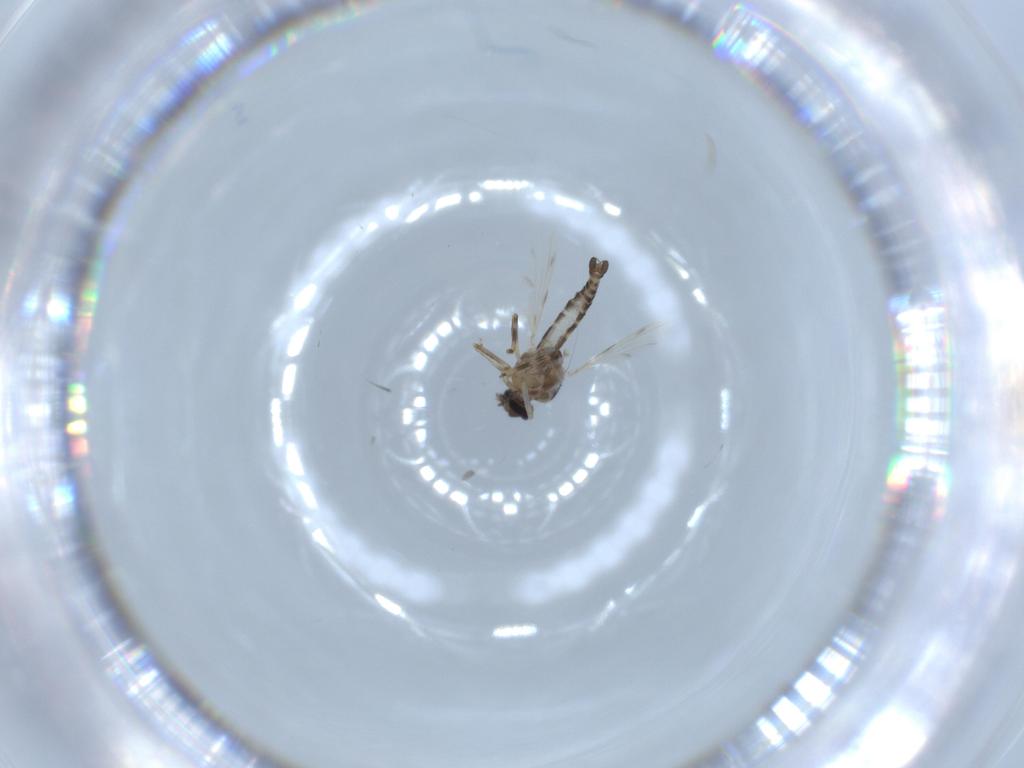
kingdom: Animalia
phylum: Arthropoda
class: Insecta
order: Diptera
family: Ceratopogonidae
